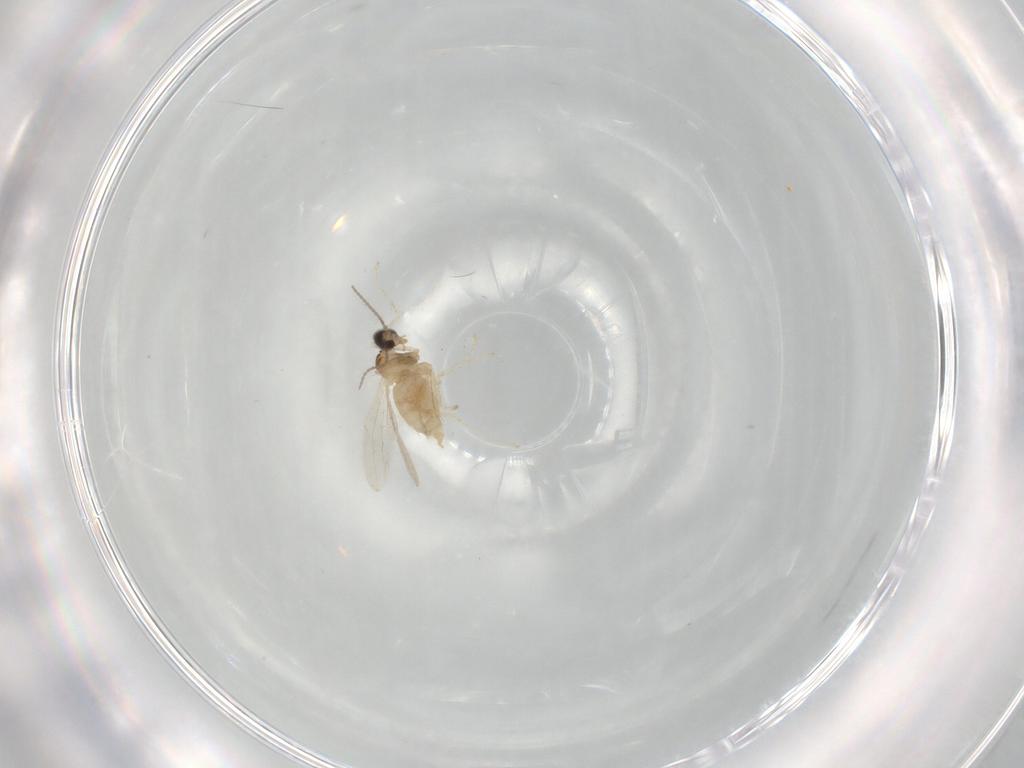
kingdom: Animalia
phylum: Arthropoda
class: Insecta
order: Diptera
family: Cecidomyiidae
